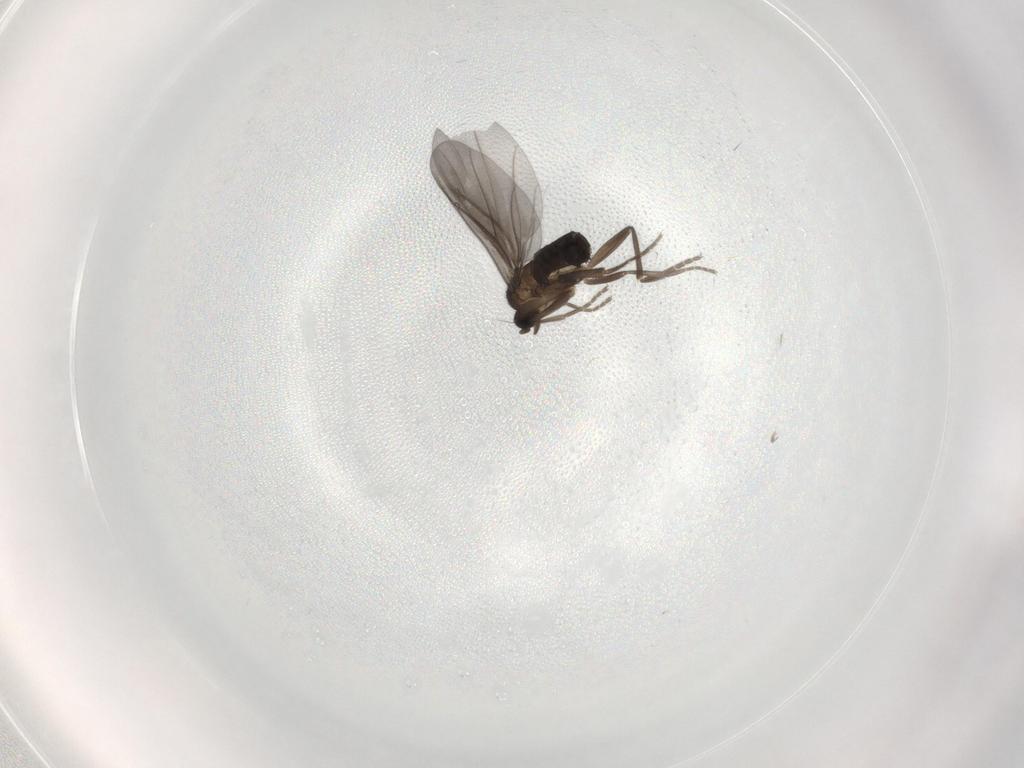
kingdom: Animalia
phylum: Arthropoda
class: Insecta
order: Diptera
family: Phoridae
